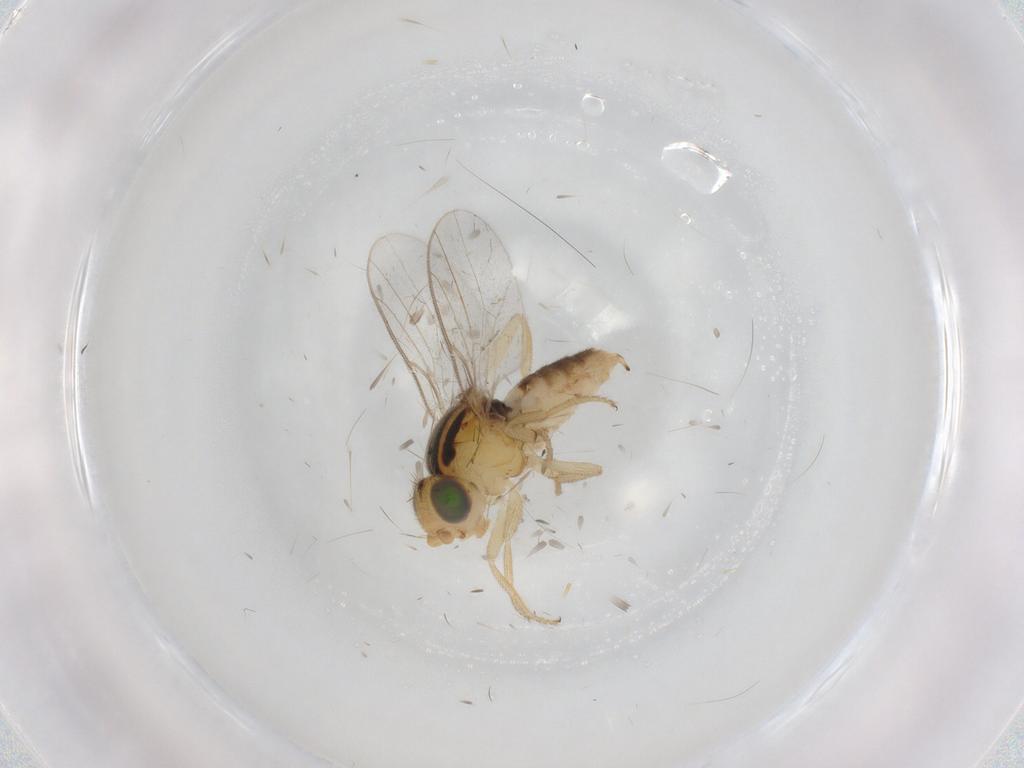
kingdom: Animalia
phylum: Arthropoda
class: Insecta
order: Diptera
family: Chloropidae
